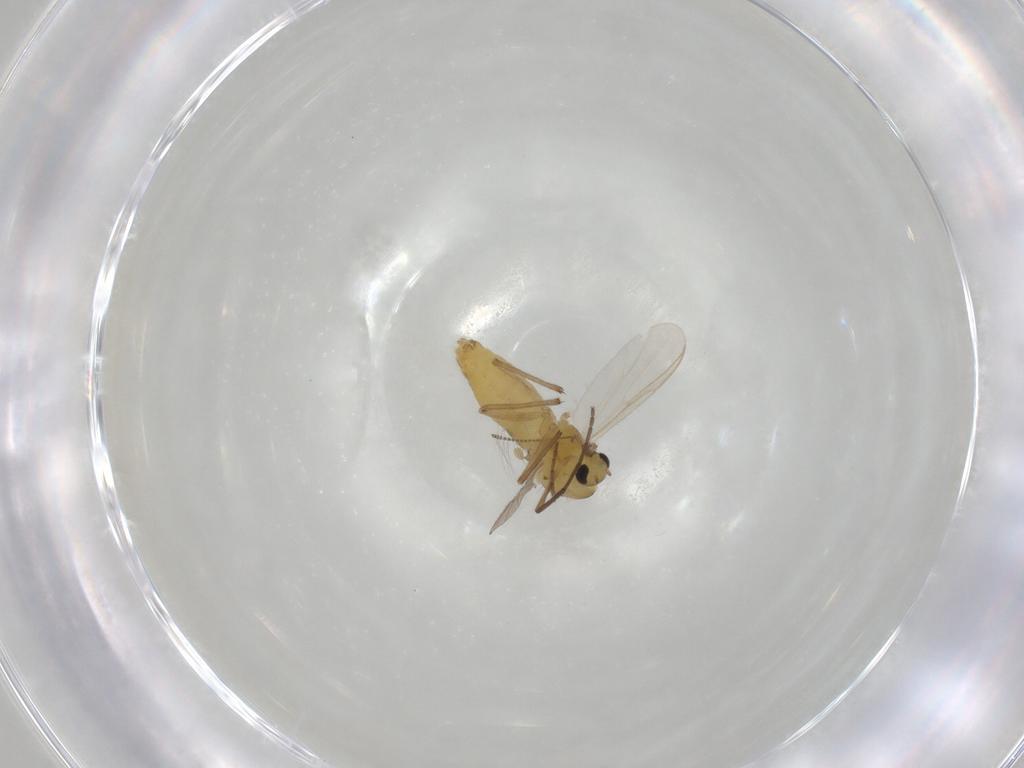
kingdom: Animalia
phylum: Arthropoda
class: Insecta
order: Diptera
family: Chironomidae
